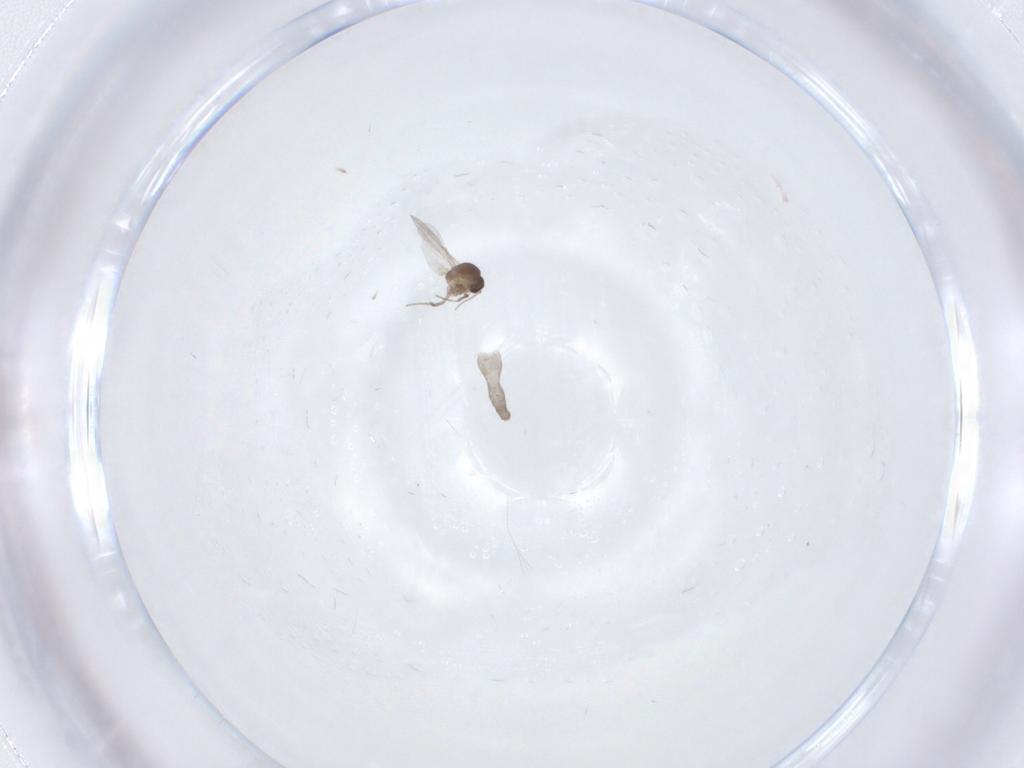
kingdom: Animalia
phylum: Arthropoda
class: Insecta
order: Diptera
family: Ceratopogonidae
